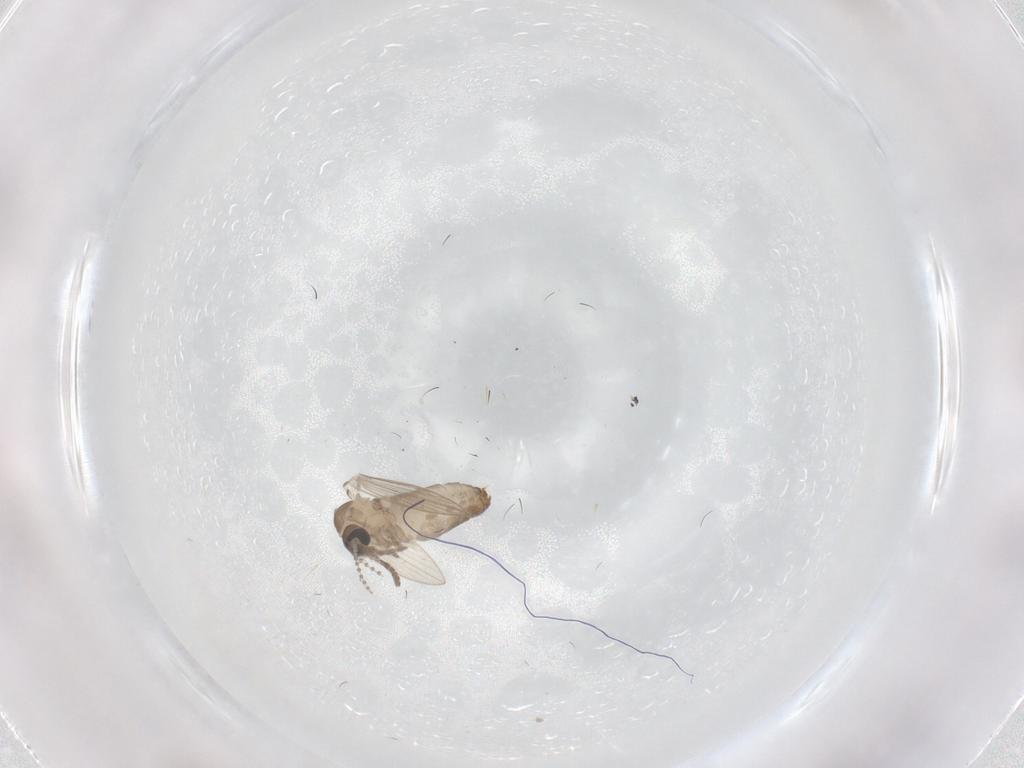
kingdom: Animalia
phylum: Arthropoda
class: Insecta
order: Diptera
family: Psychodidae
